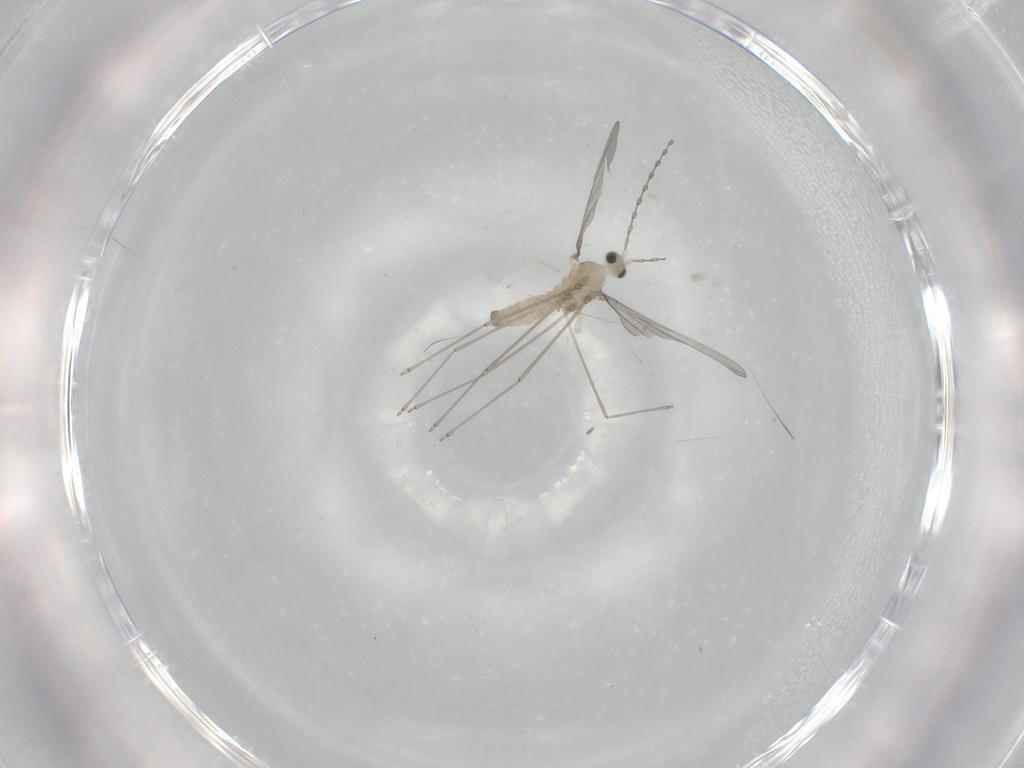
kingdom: Animalia
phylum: Arthropoda
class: Insecta
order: Diptera
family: Cecidomyiidae
